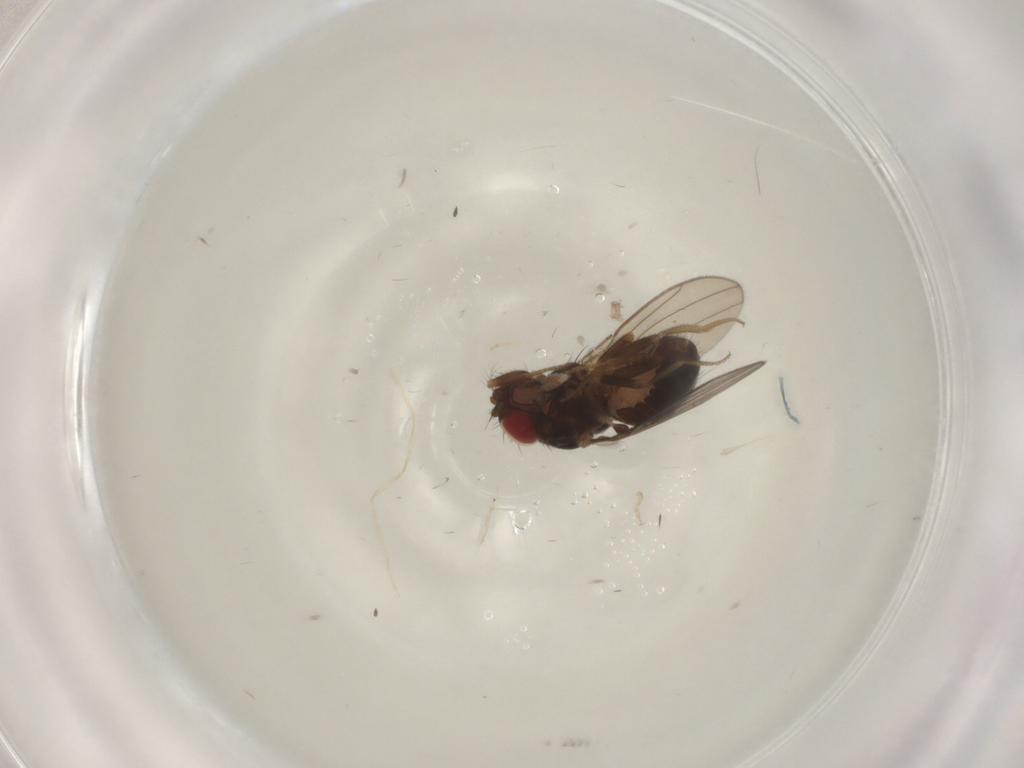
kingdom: Animalia
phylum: Arthropoda
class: Insecta
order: Diptera
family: Drosophilidae
